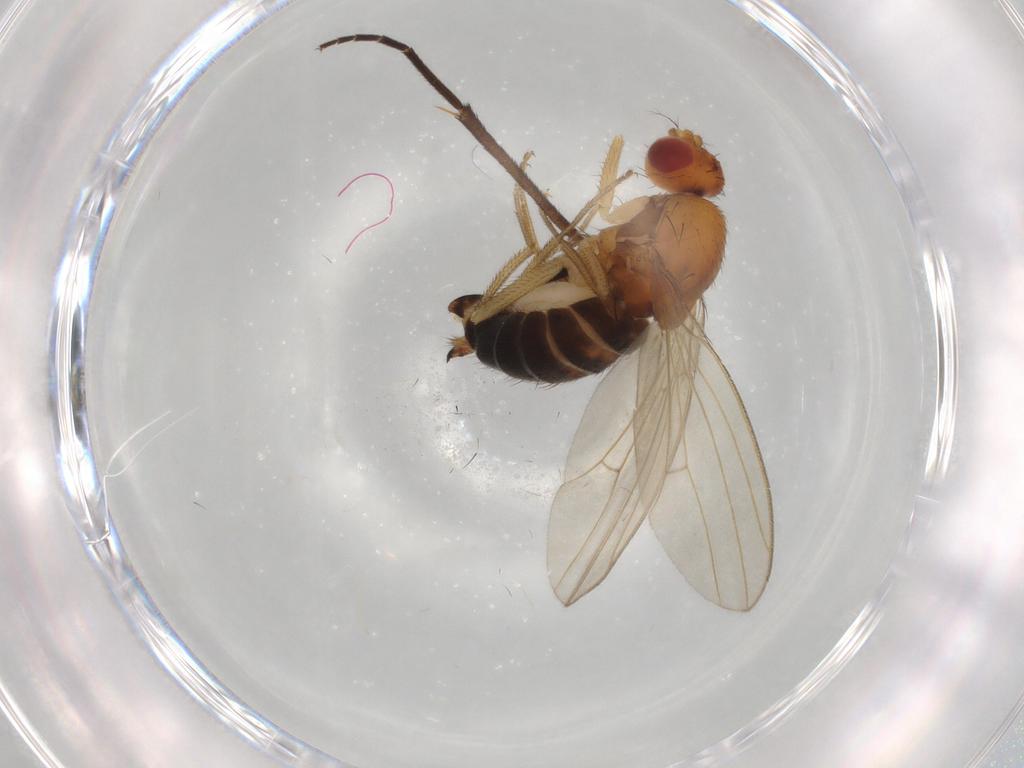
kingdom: Animalia
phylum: Arthropoda
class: Insecta
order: Diptera
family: Drosophilidae
